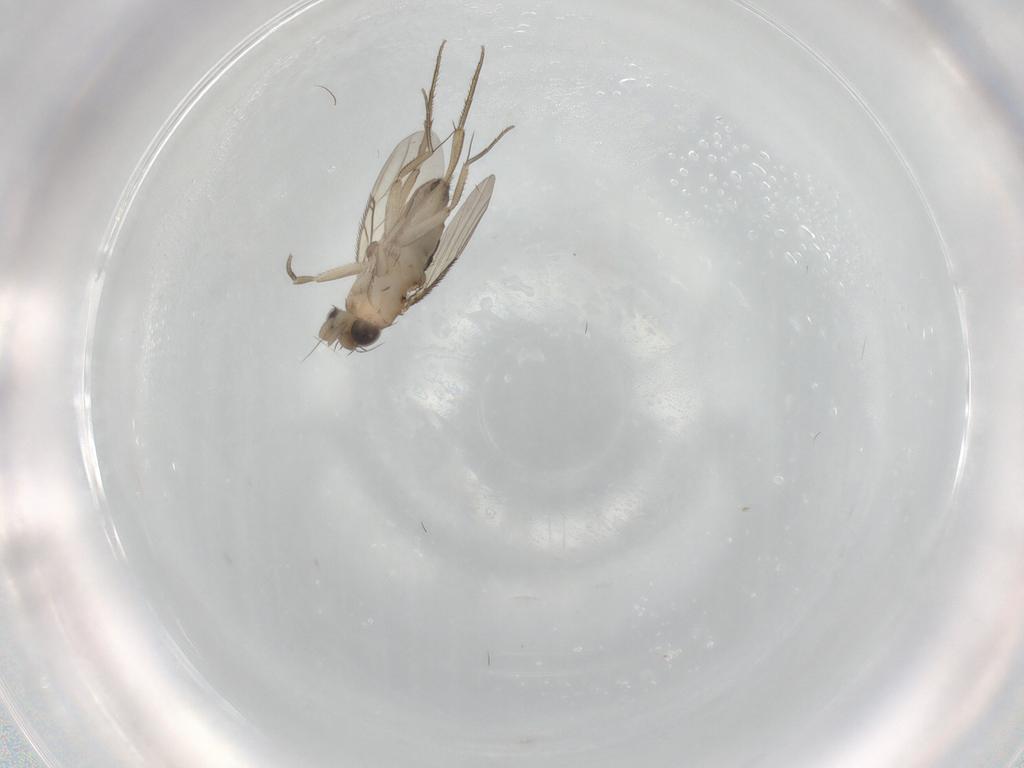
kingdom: Animalia
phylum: Arthropoda
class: Insecta
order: Diptera
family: Phoridae
